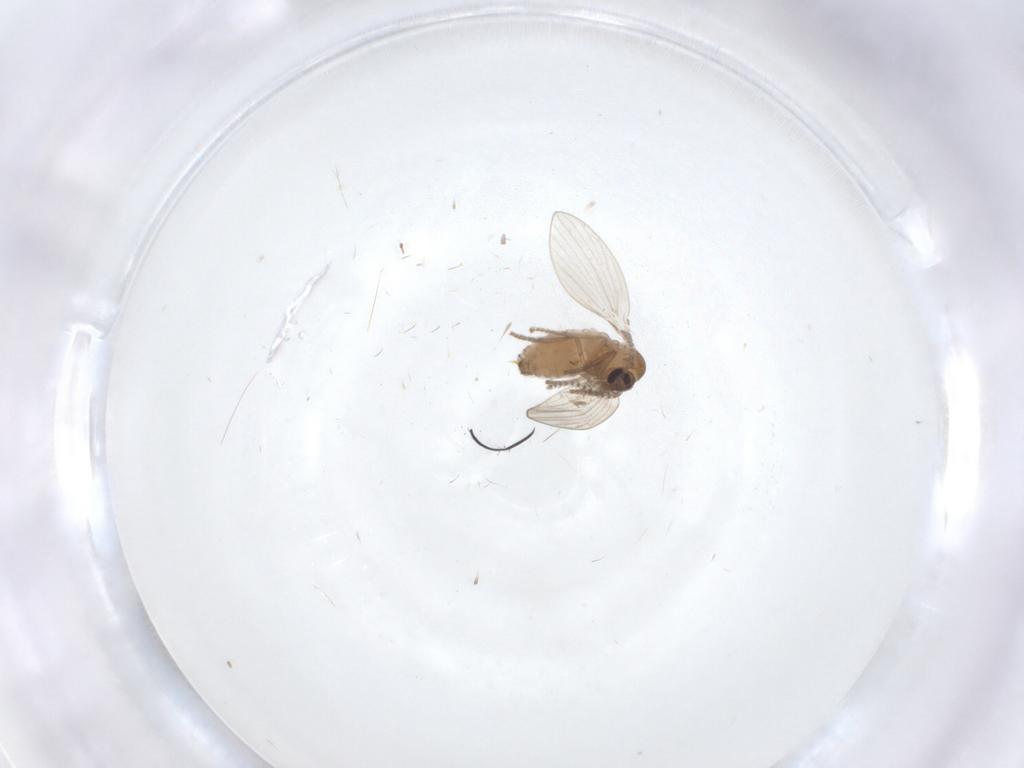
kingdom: Animalia
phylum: Arthropoda
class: Insecta
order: Diptera
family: Psychodidae
